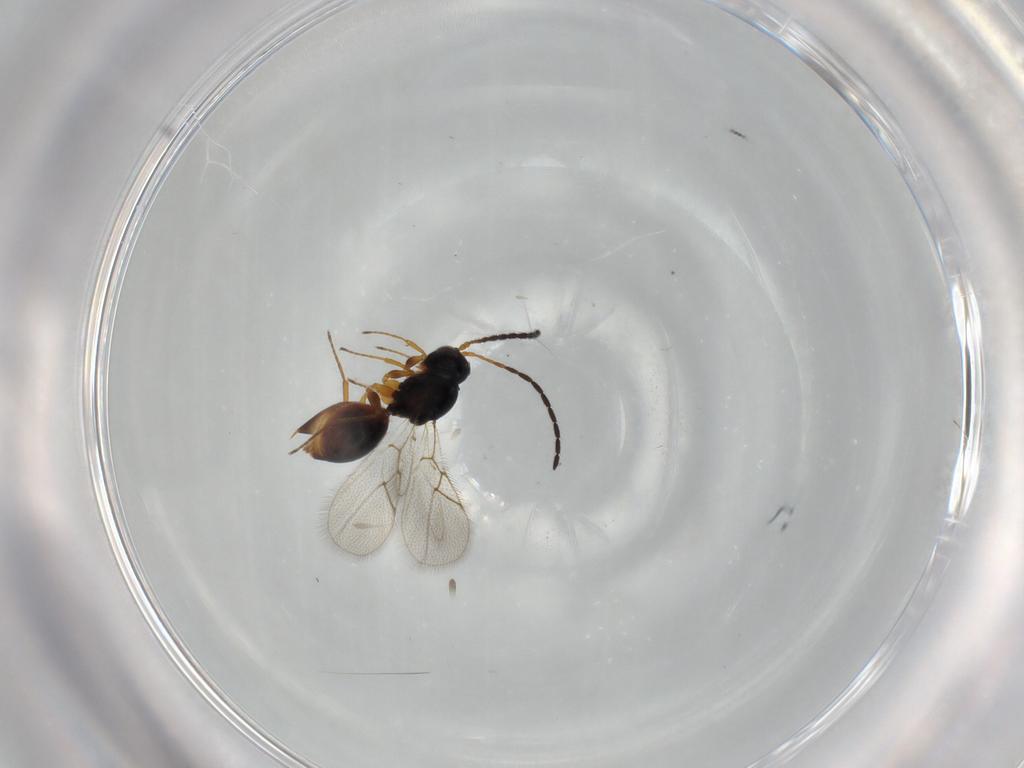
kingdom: Animalia
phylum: Arthropoda
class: Insecta
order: Hymenoptera
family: Figitidae
